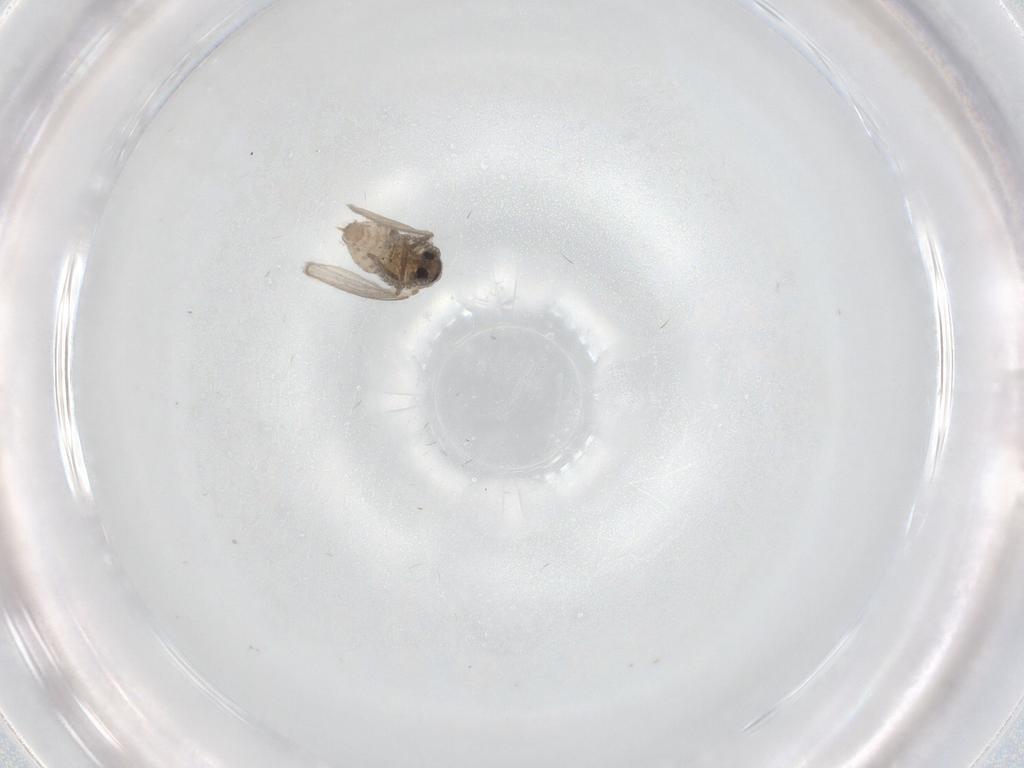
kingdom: Animalia
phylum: Arthropoda
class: Insecta
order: Diptera
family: Psychodidae
